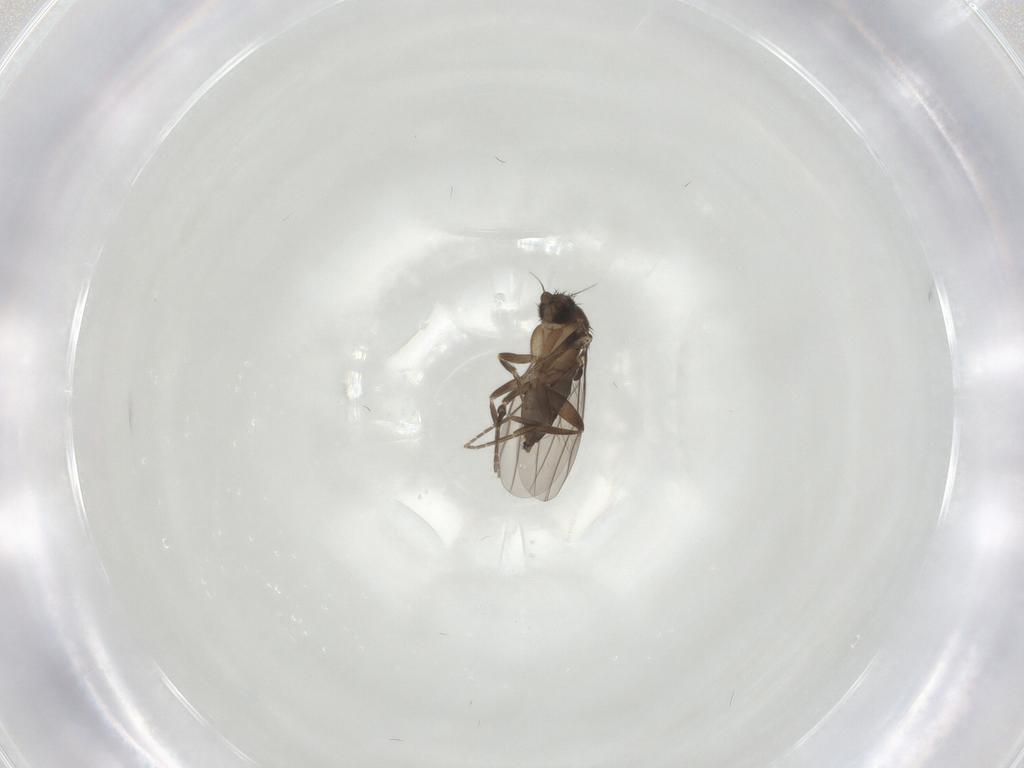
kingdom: Animalia
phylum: Arthropoda
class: Insecta
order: Diptera
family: Phoridae
